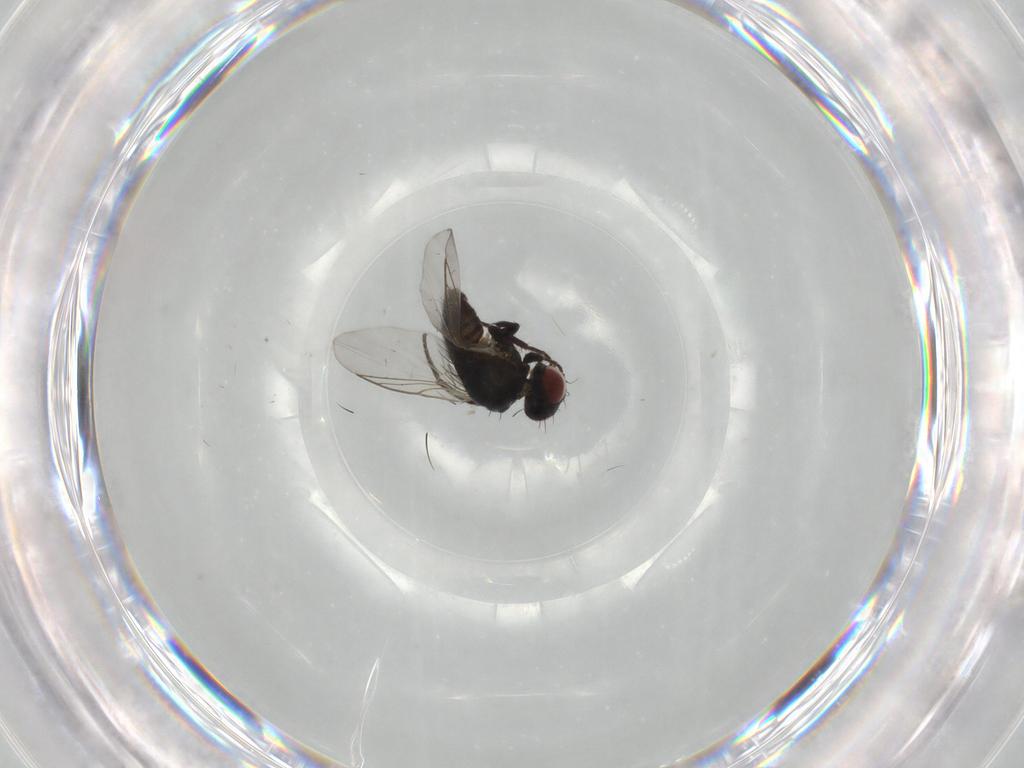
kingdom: Animalia
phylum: Arthropoda
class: Insecta
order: Diptera
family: Agromyzidae
